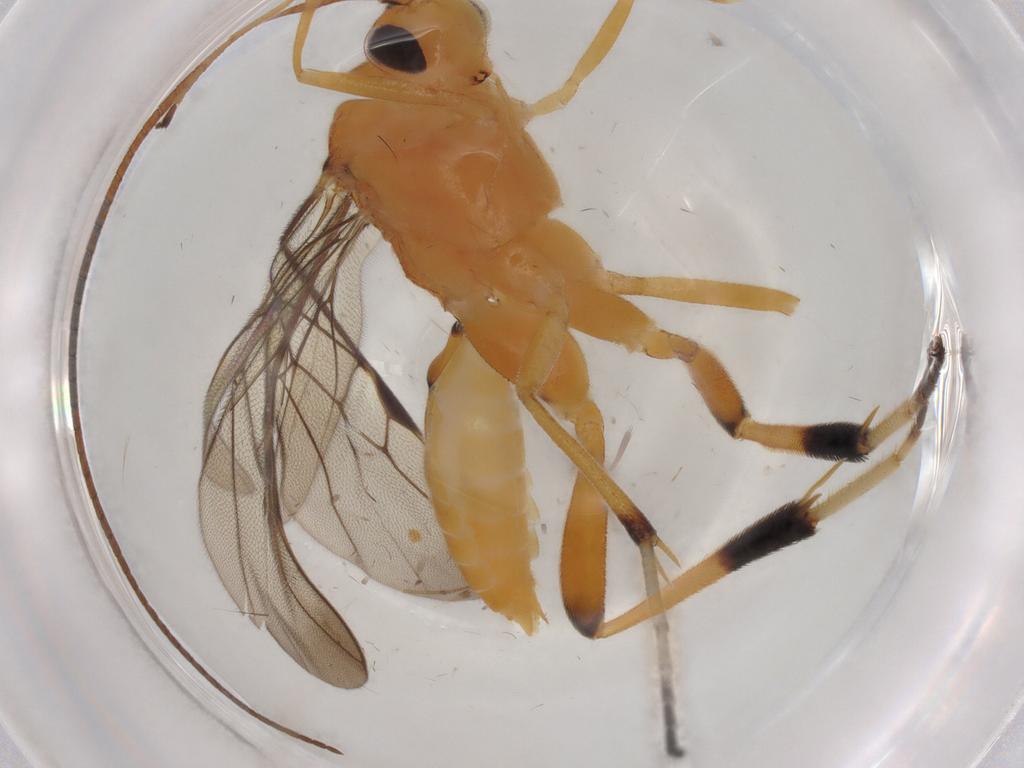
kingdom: Animalia
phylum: Arthropoda
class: Insecta
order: Hymenoptera
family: Braconidae
